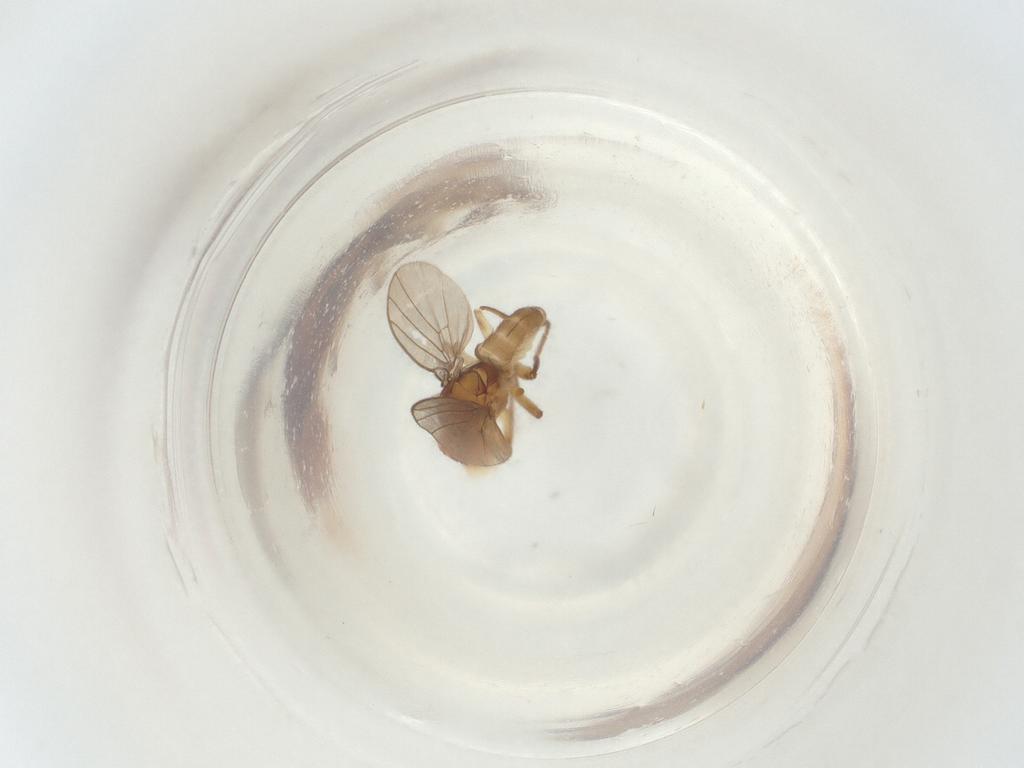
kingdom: Animalia
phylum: Arthropoda
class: Insecta
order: Diptera
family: Agromyzidae
